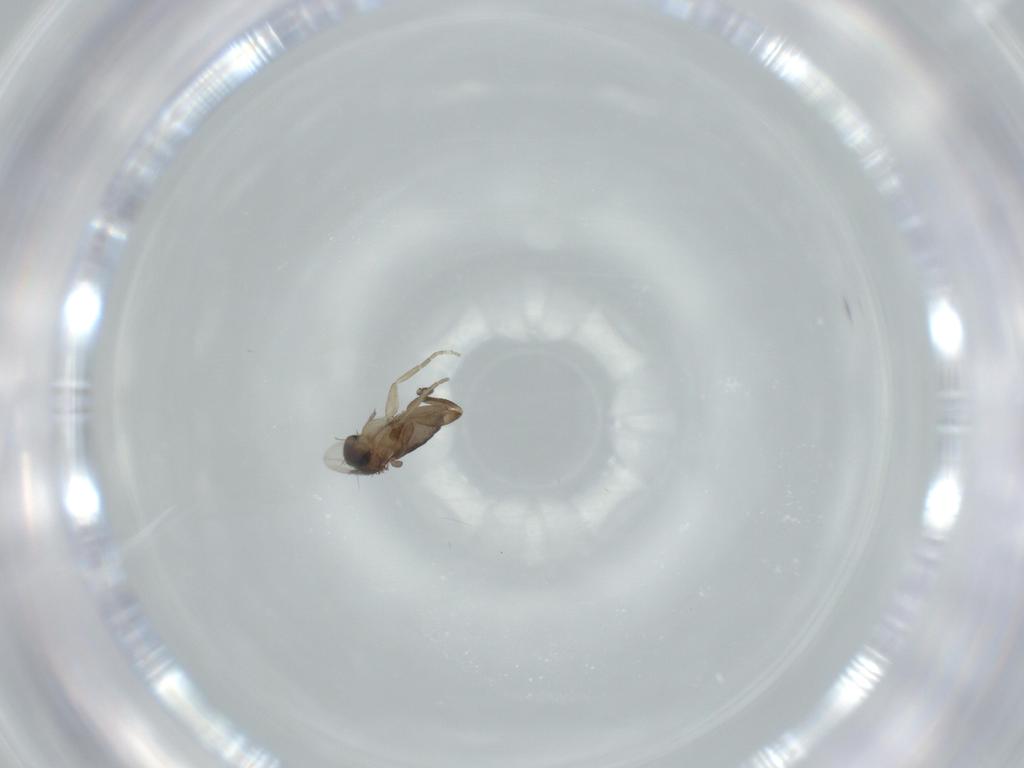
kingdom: Animalia
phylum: Arthropoda
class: Insecta
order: Diptera
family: Phoridae
